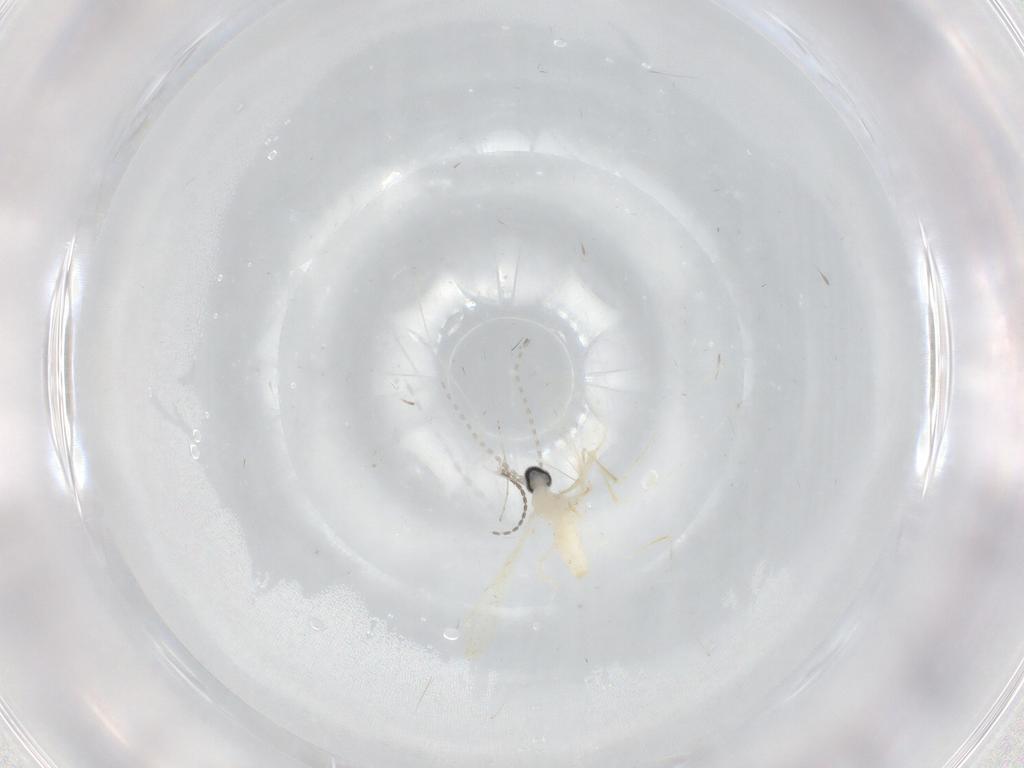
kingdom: Animalia
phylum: Arthropoda
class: Insecta
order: Diptera
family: Cecidomyiidae
